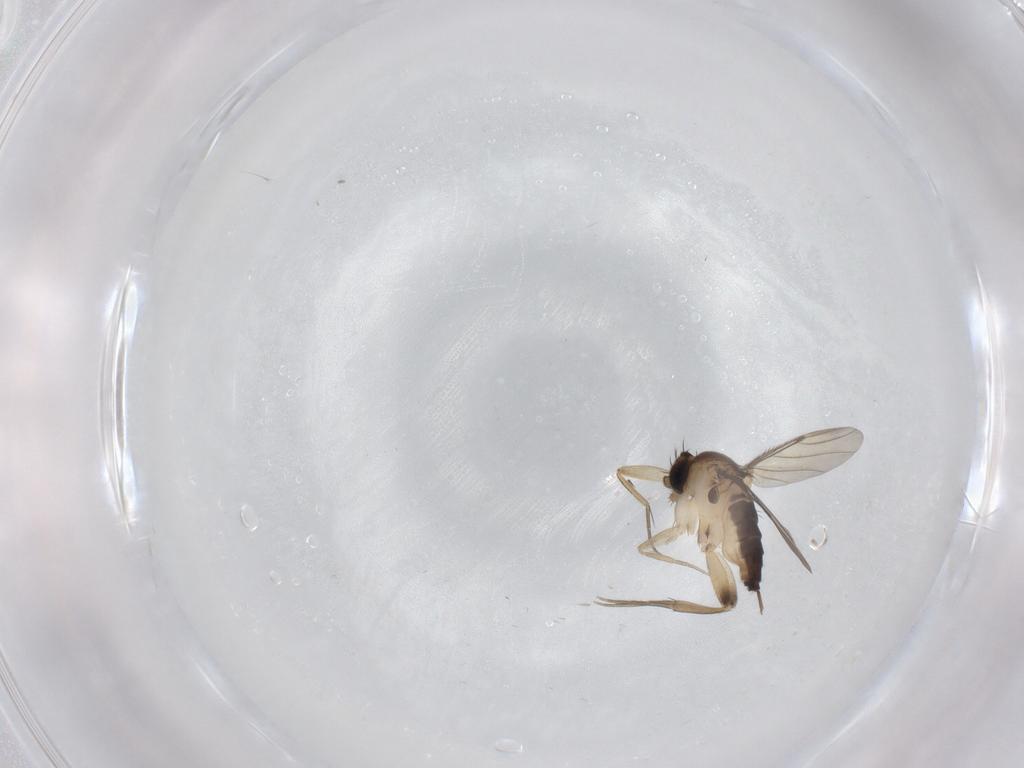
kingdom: Animalia
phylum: Arthropoda
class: Insecta
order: Diptera
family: Phoridae
